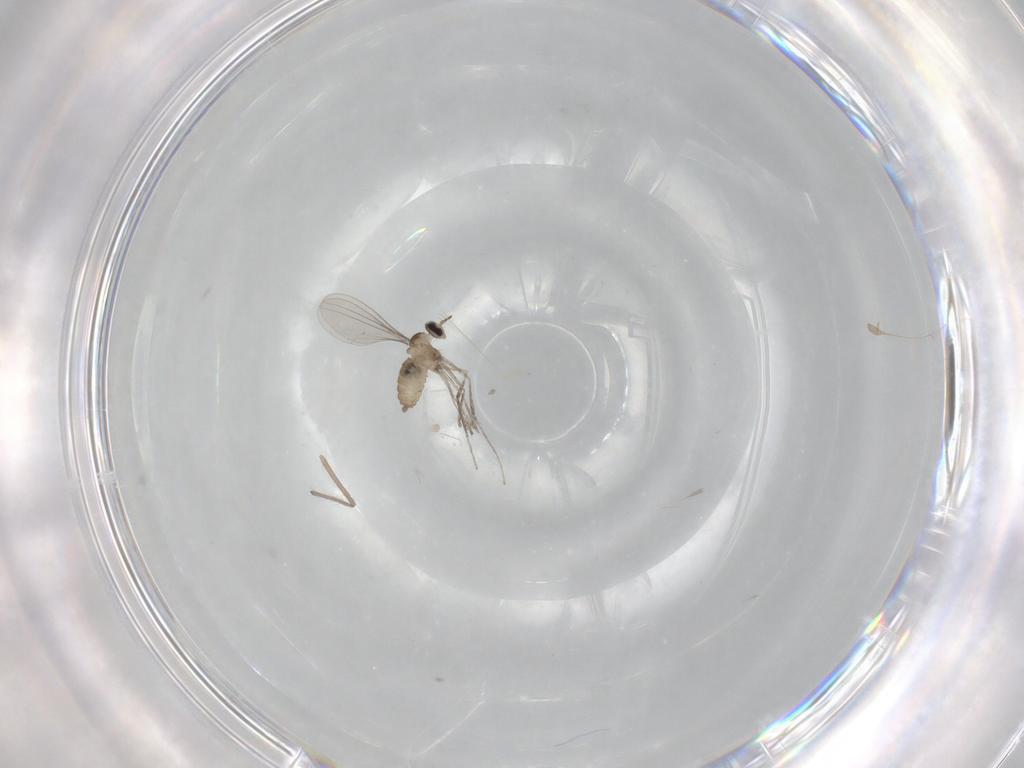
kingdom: Animalia
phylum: Arthropoda
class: Insecta
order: Diptera
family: Cecidomyiidae
